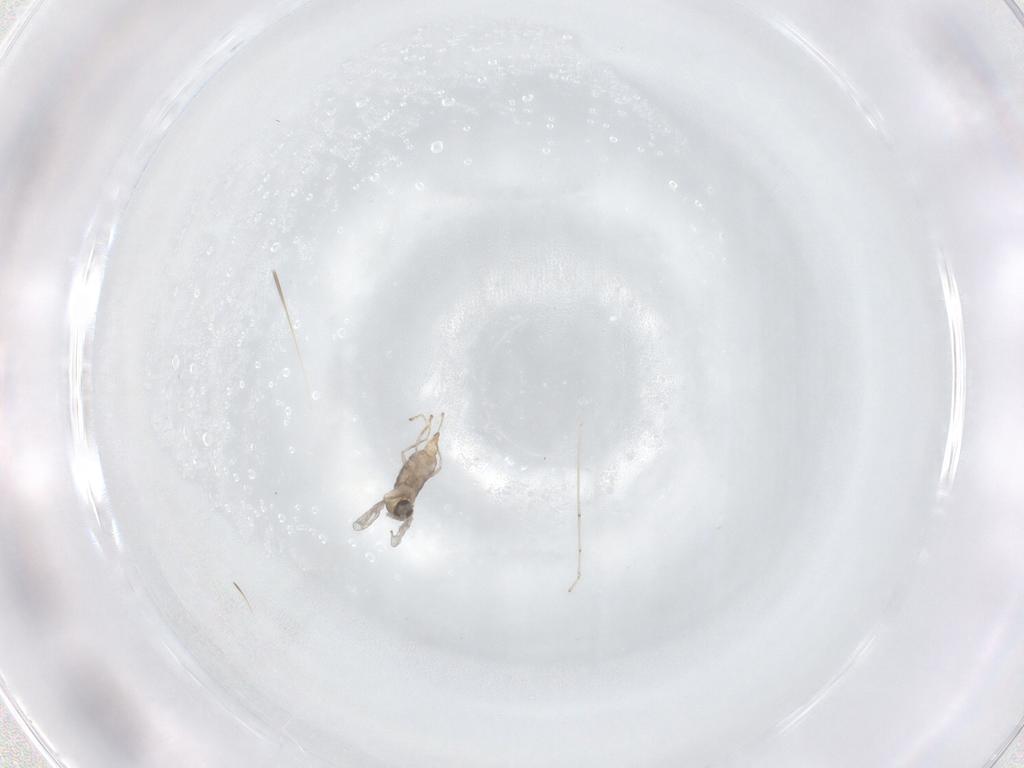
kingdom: Animalia
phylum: Arthropoda
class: Insecta
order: Diptera
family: Cecidomyiidae
